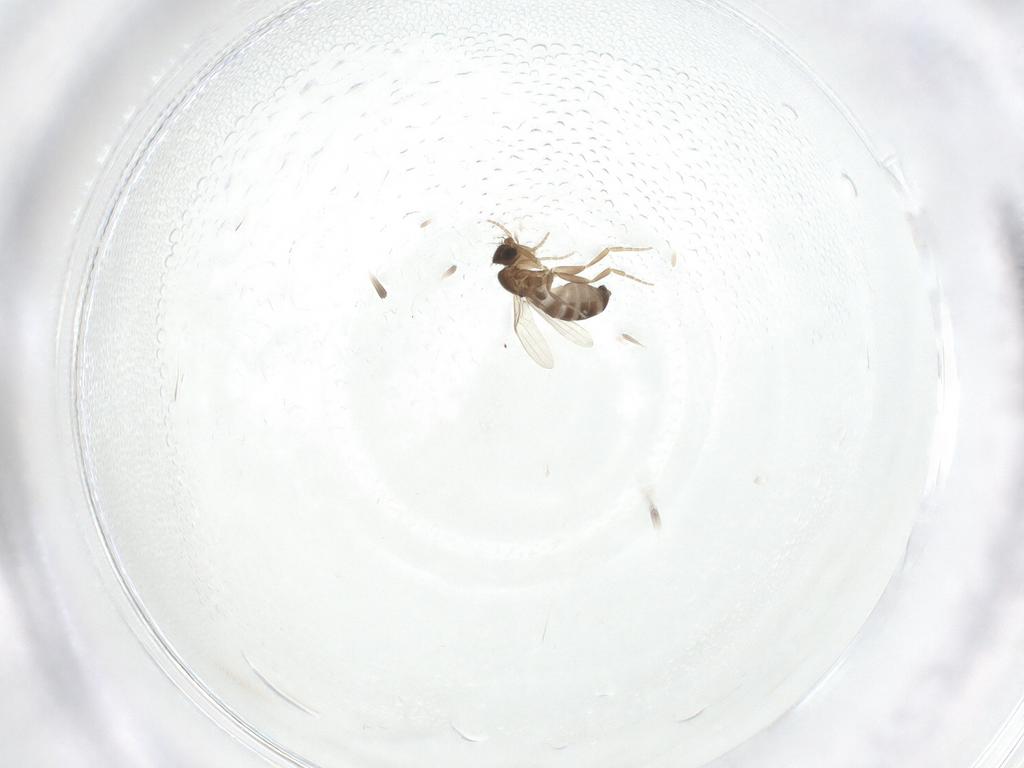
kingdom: Animalia
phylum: Arthropoda
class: Insecta
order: Diptera
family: Phoridae
